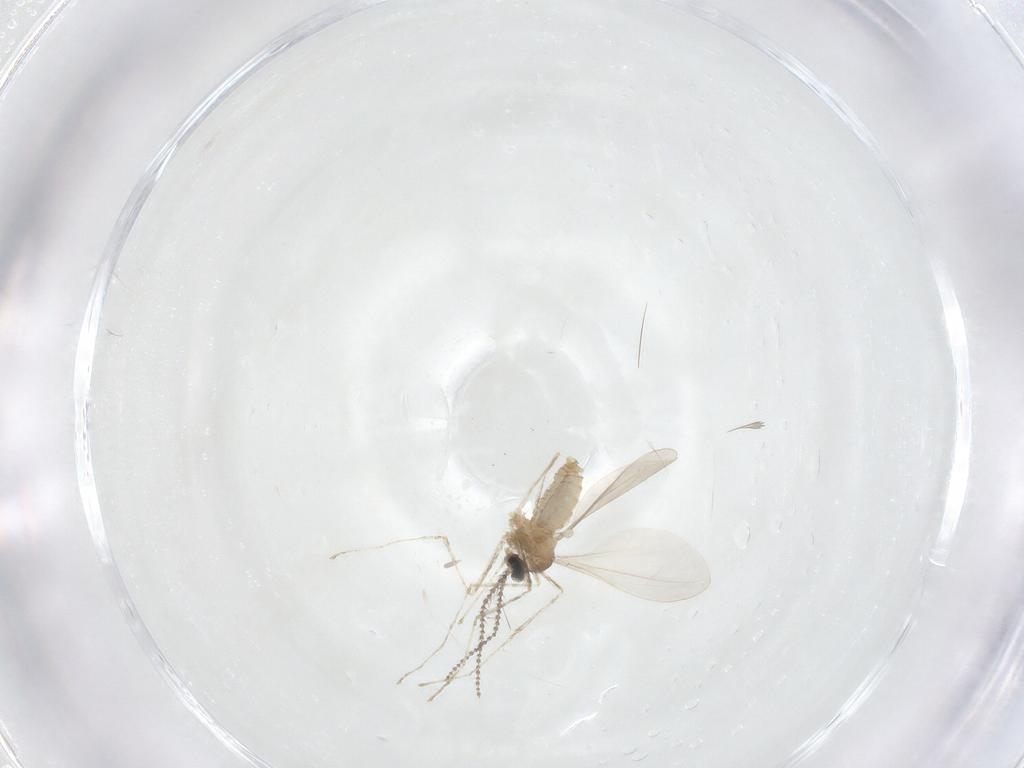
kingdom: Animalia
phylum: Arthropoda
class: Insecta
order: Diptera
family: Cecidomyiidae
